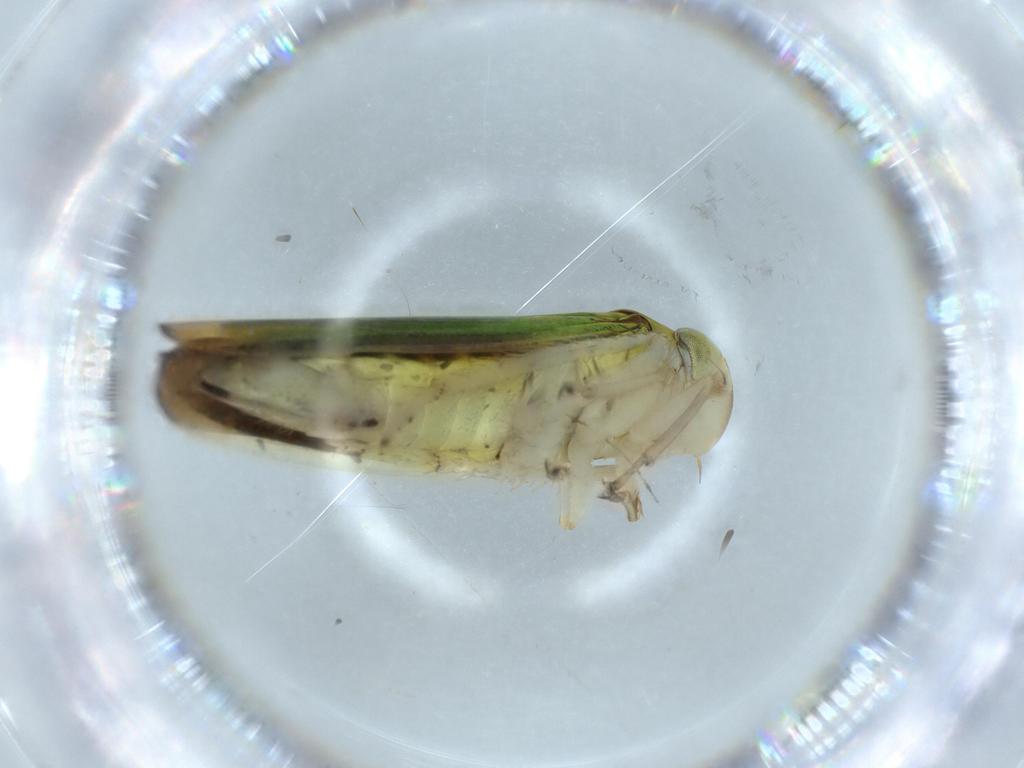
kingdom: Animalia
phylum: Arthropoda
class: Insecta
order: Hemiptera
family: Cicadellidae
